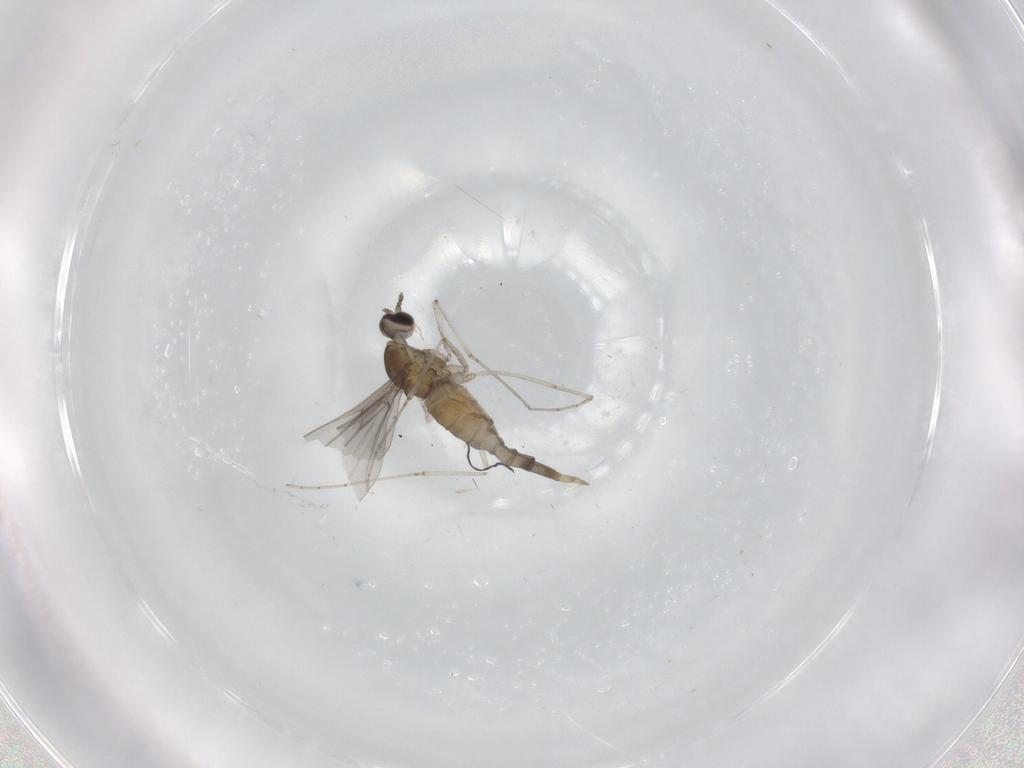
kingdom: Animalia
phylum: Arthropoda
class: Insecta
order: Diptera
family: Cecidomyiidae
